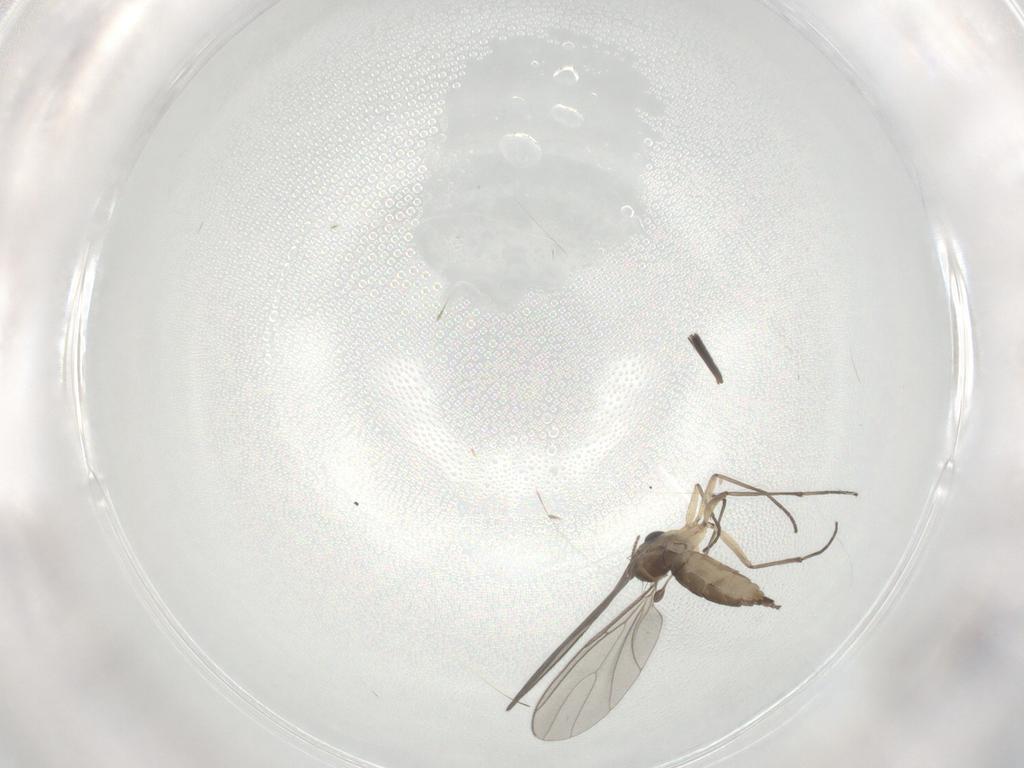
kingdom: Animalia
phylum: Arthropoda
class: Insecta
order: Diptera
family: Sciaridae
